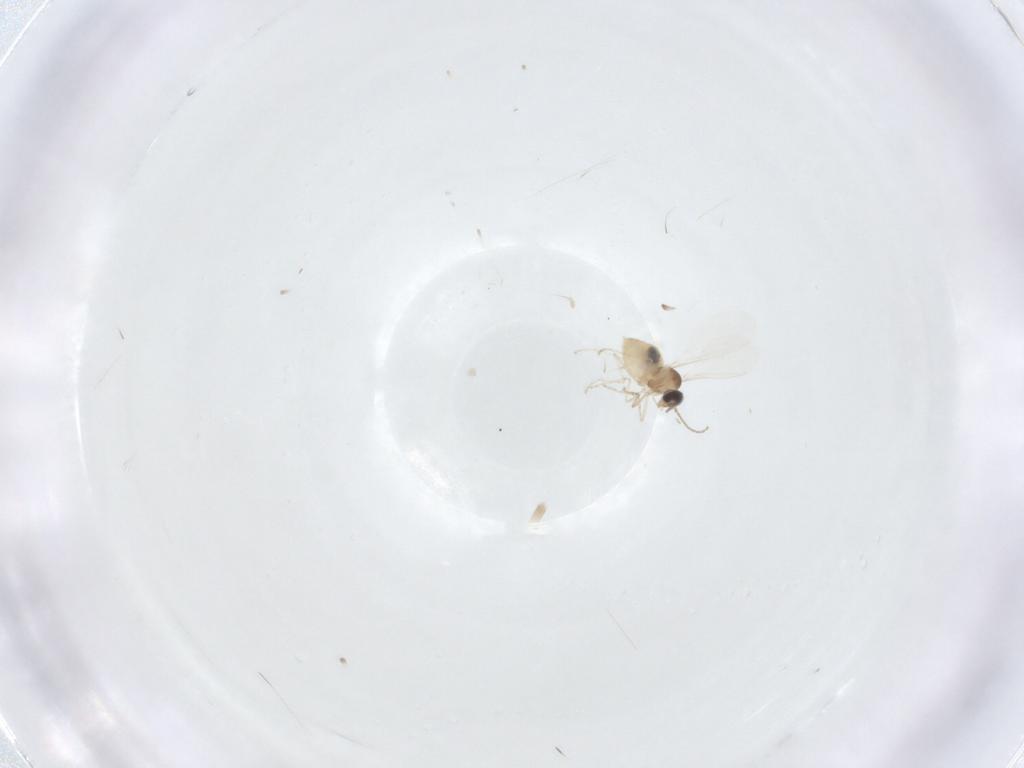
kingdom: Animalia
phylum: Arthropoda
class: Insecta
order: Diptera
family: Cecidomyiidae
